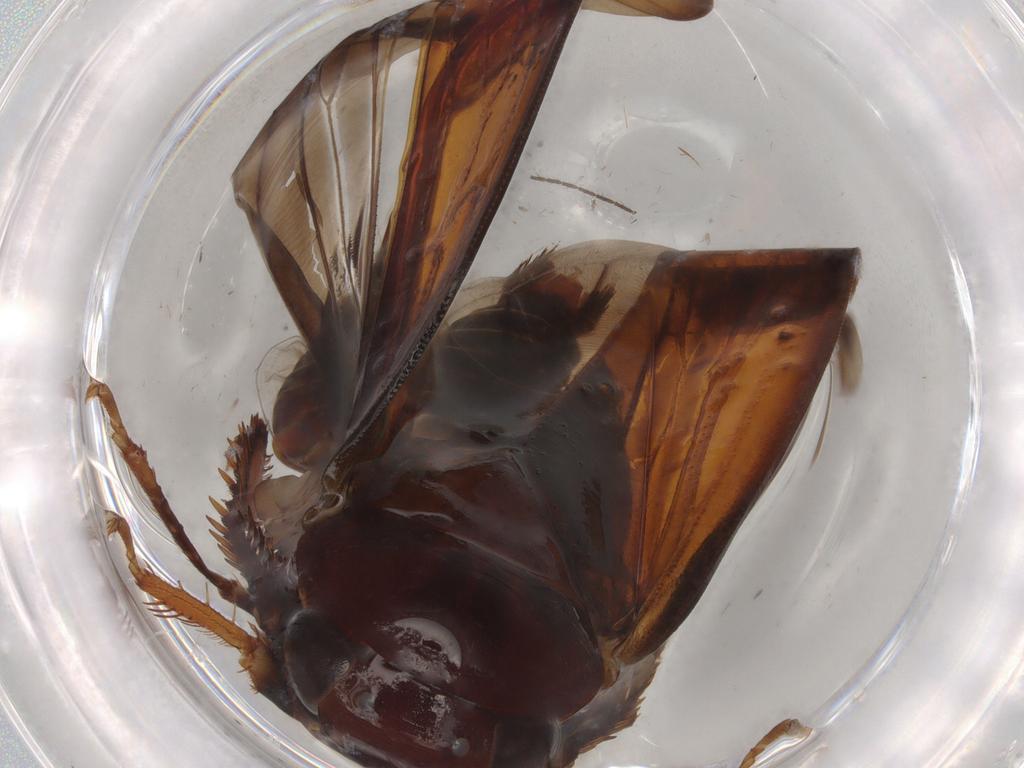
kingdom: Animalia
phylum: Arthropoda
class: Insecta
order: Hemiptera
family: Cicadellidae
